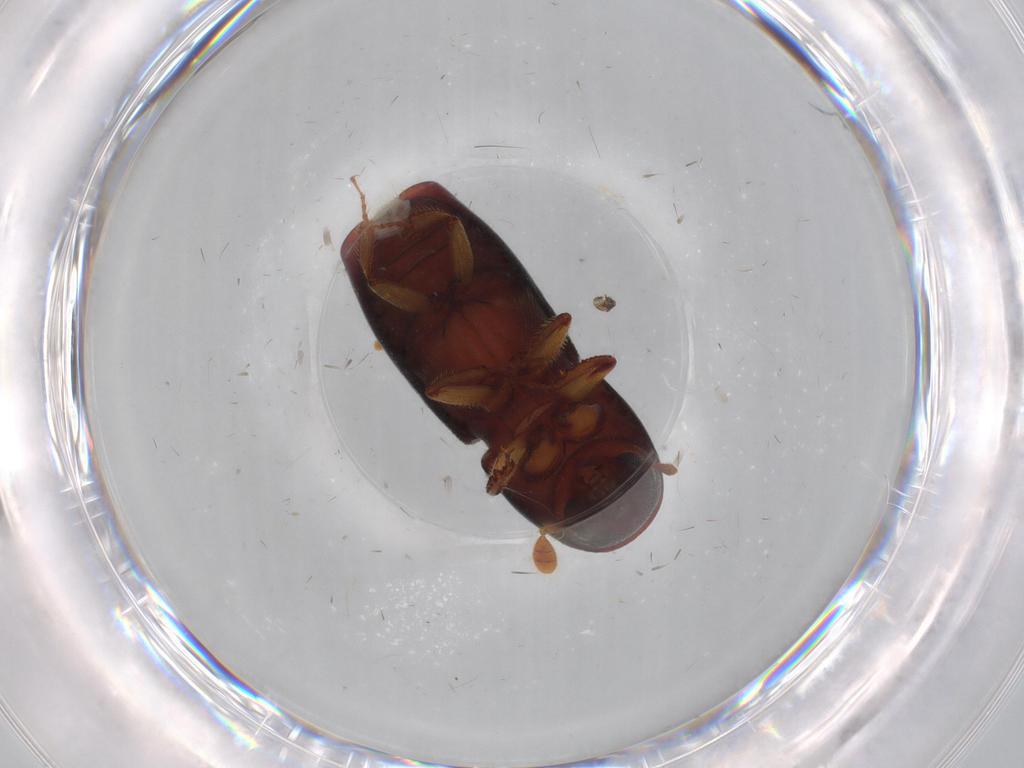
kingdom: Animalia
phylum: Arthropoda
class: Insecta
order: Coleoptera
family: Curculionidae
